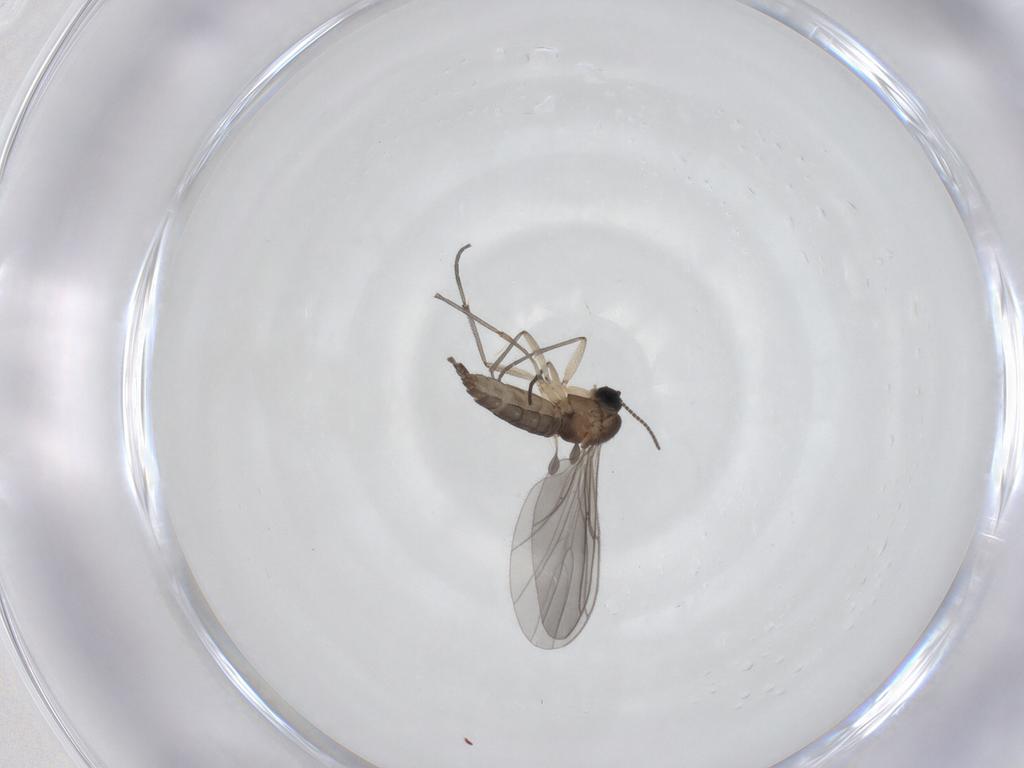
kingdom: Animalia
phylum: Arthropoda
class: Insecta
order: Diptera
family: Sciaridae
